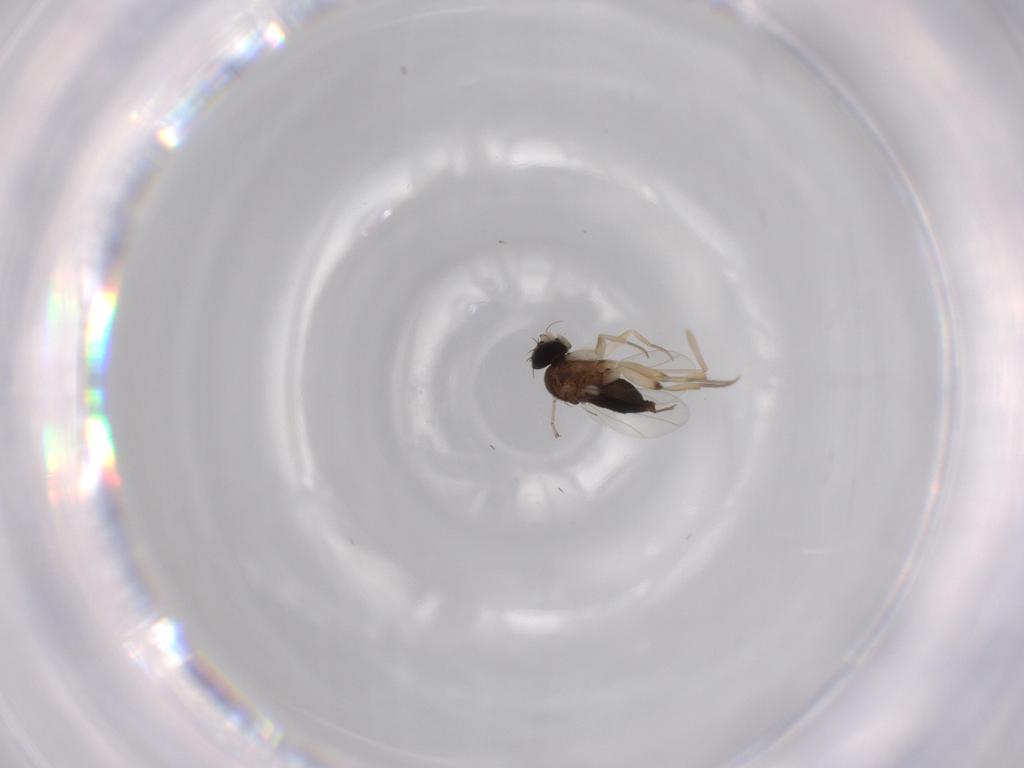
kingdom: Animalia
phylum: Arthropoda
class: Insecta
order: Diptera
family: Cecidomyiidae
